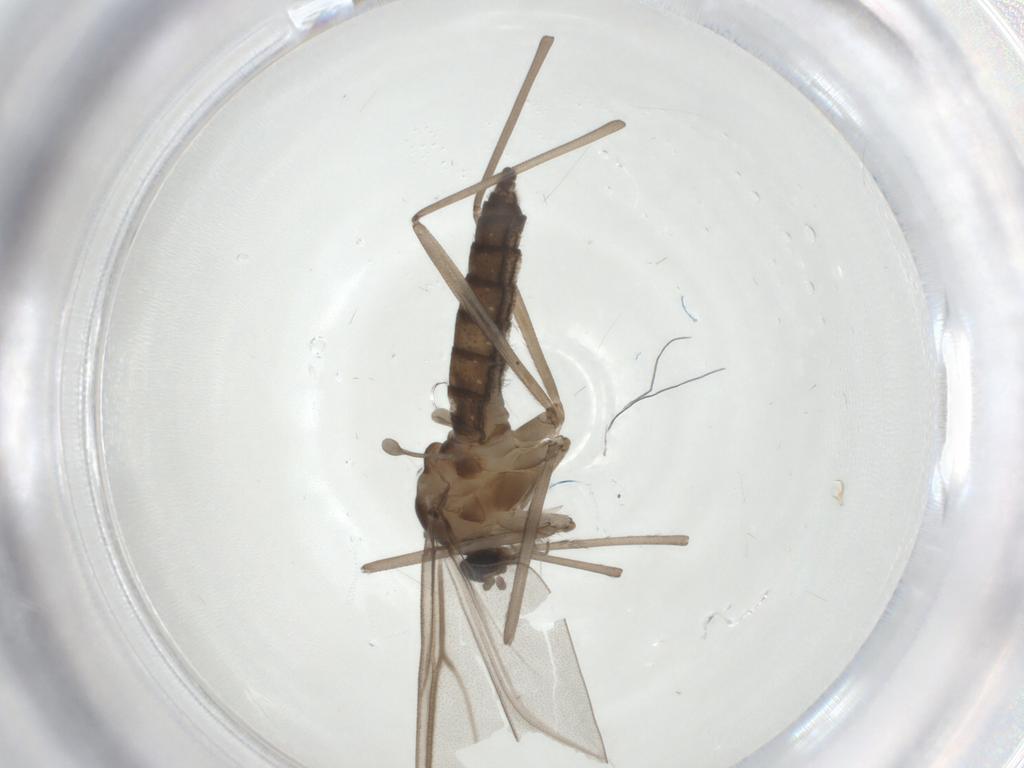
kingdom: Animalia
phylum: Arthropoda
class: Insecta
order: Diptera
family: Cecidomyiidae
